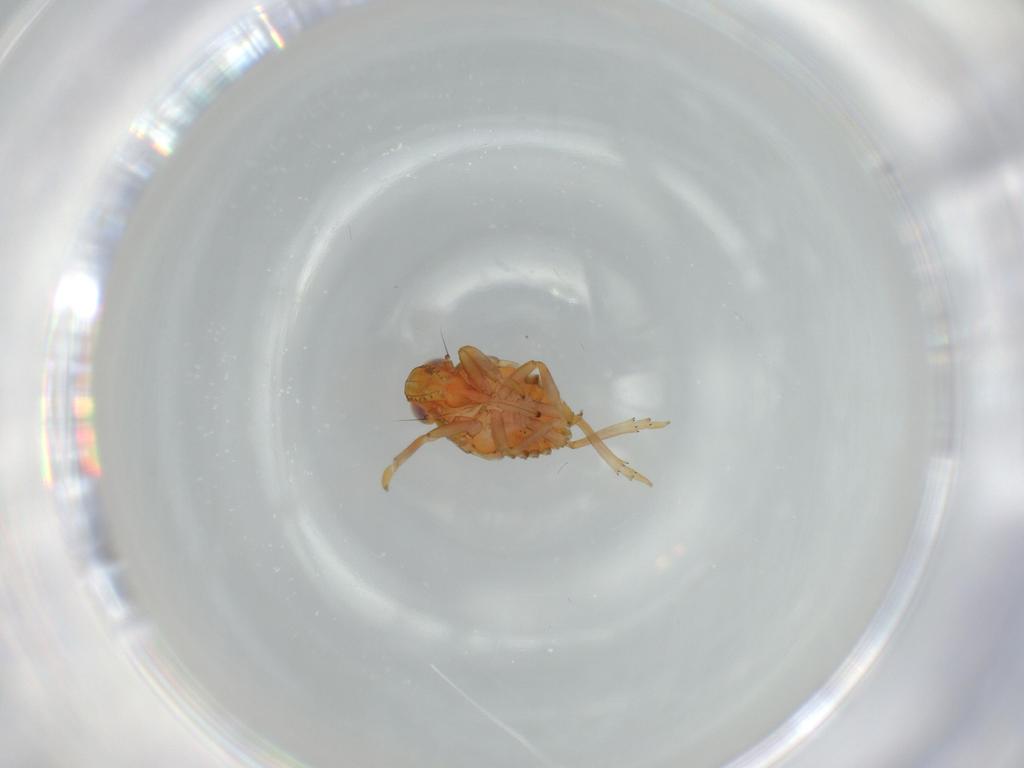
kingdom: Animalia
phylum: Arthropoda
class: Insecta
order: Hemiptera
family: Issidae
